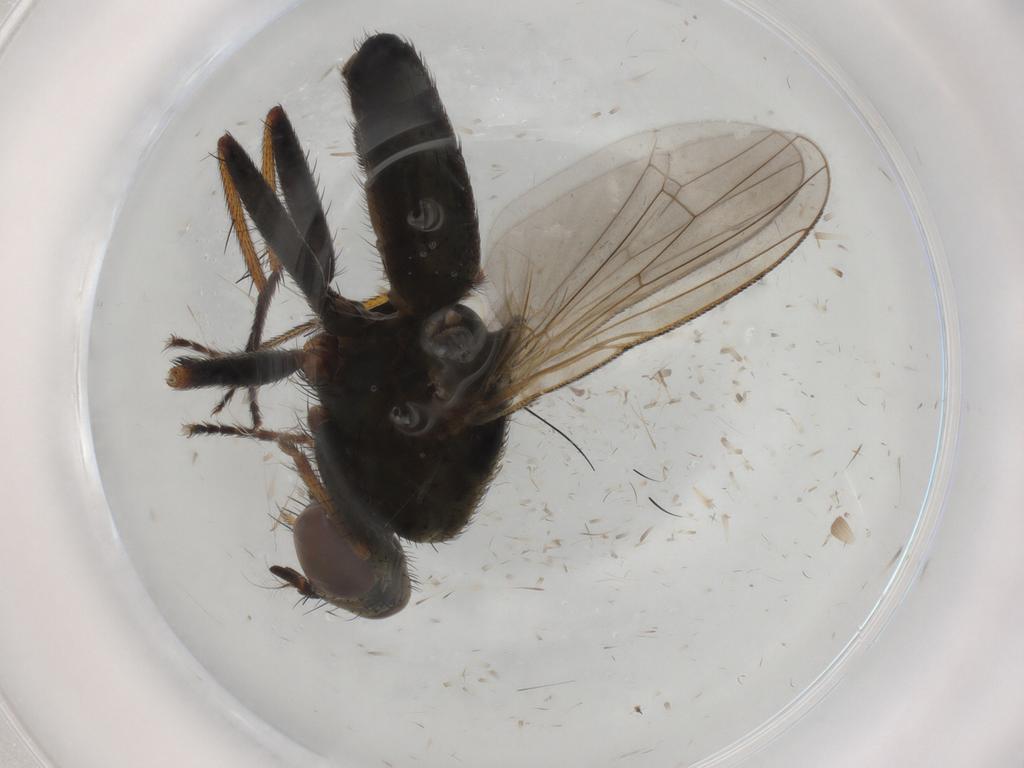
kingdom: Animalia
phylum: Arthropoda
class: Insecta
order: Diptera
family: Muscidae
